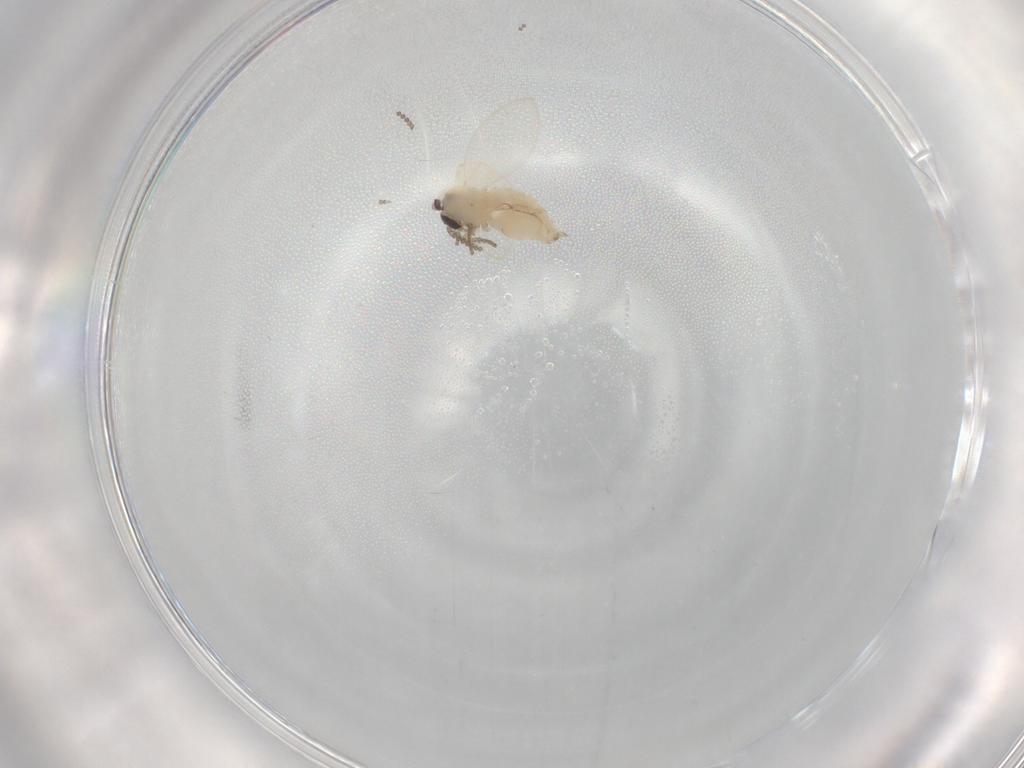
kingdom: Animalia
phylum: Arthropoda
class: Insecta
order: Diptera
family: Psychodidae
